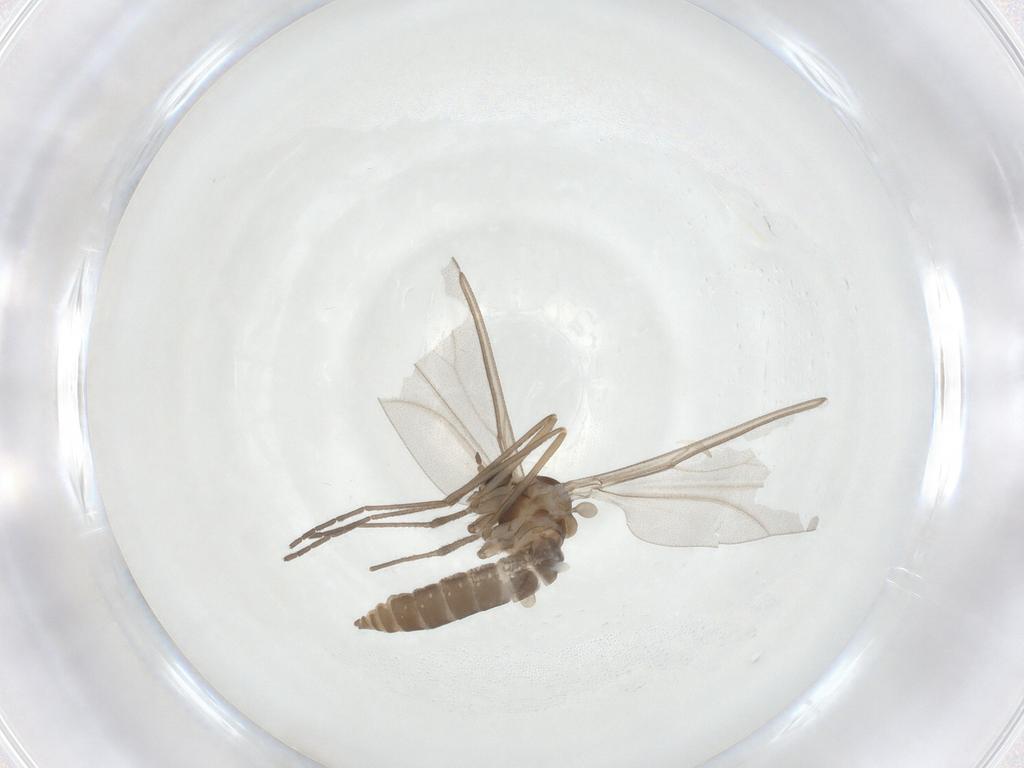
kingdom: Animalia
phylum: Arthropoda
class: Insecta
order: Diptera
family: Cecidomyiidae
